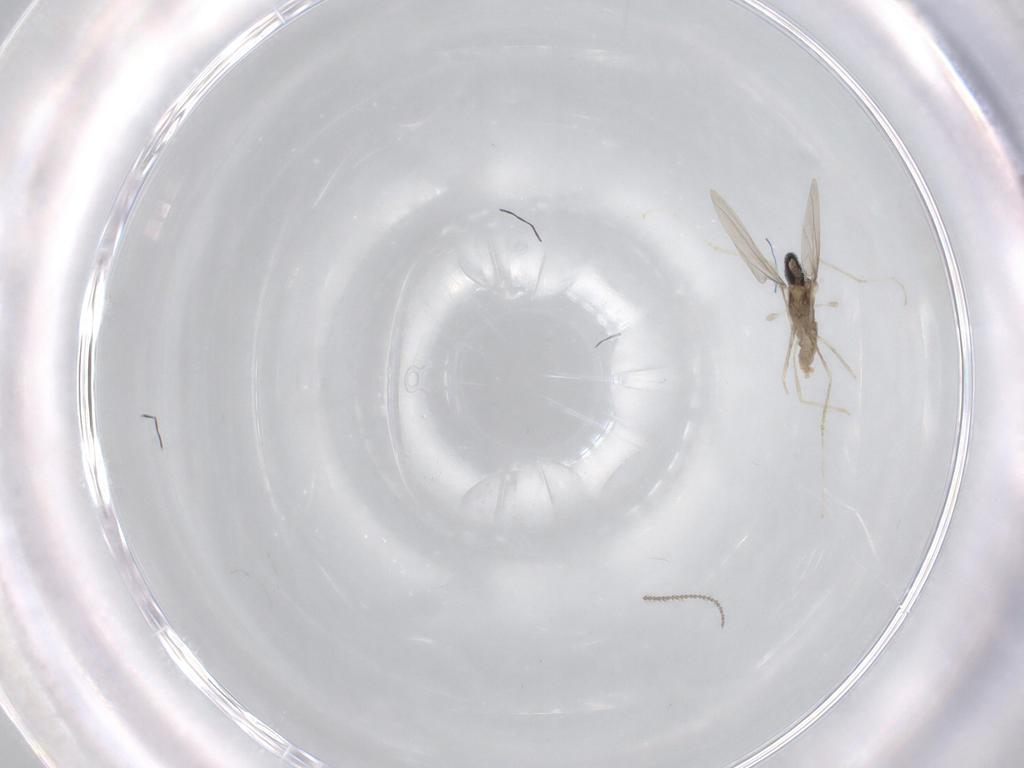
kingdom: Animalia
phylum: Arthropoda
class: Insecta
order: Diptera
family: Cecidomyiidae
